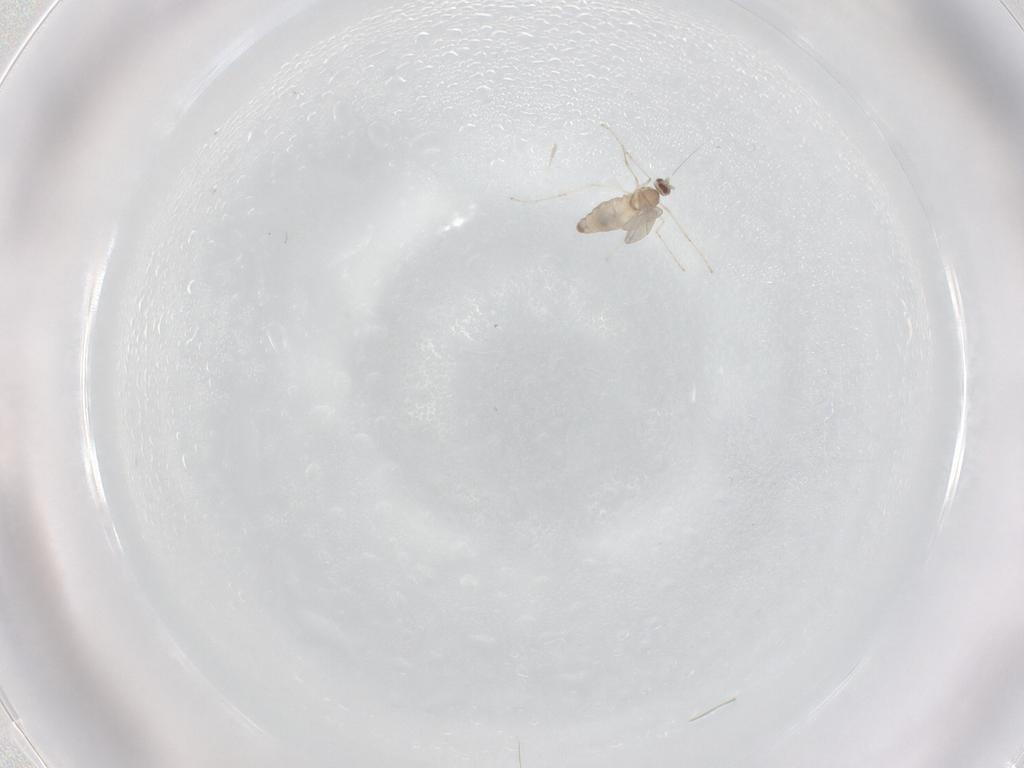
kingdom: Animalia
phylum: Arthropoda
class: Insecta
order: Diptera
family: Cecidomyiidae
